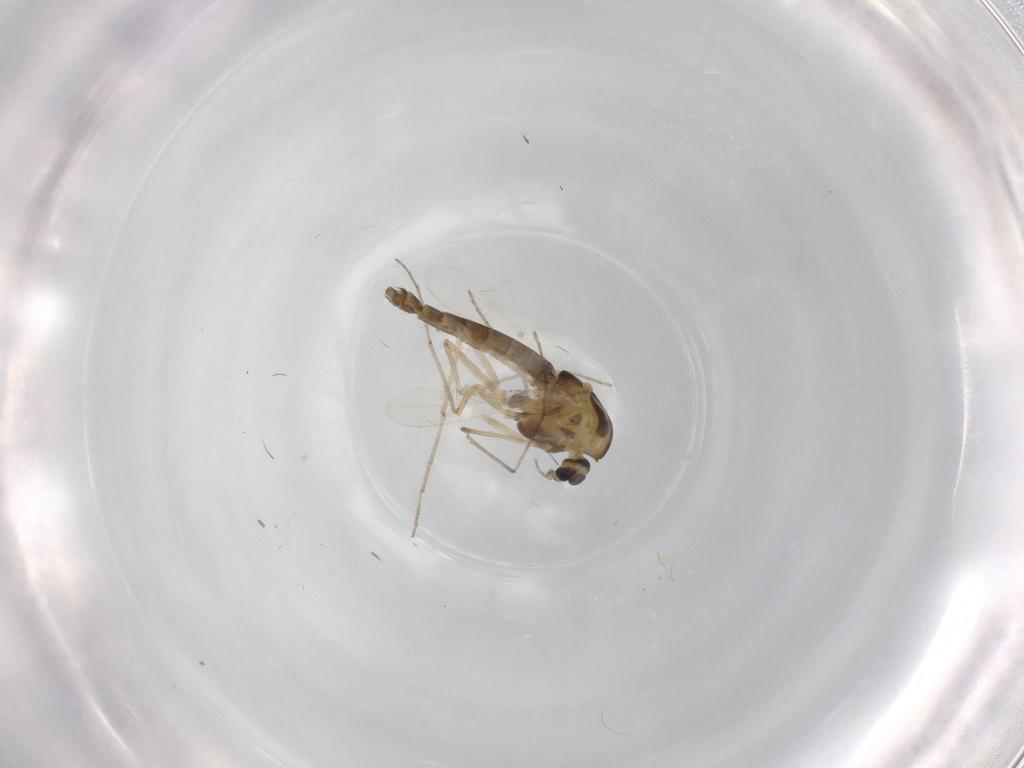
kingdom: Animalia
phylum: Arthropoda
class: Insecta
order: Diptera
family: Chironomidae
